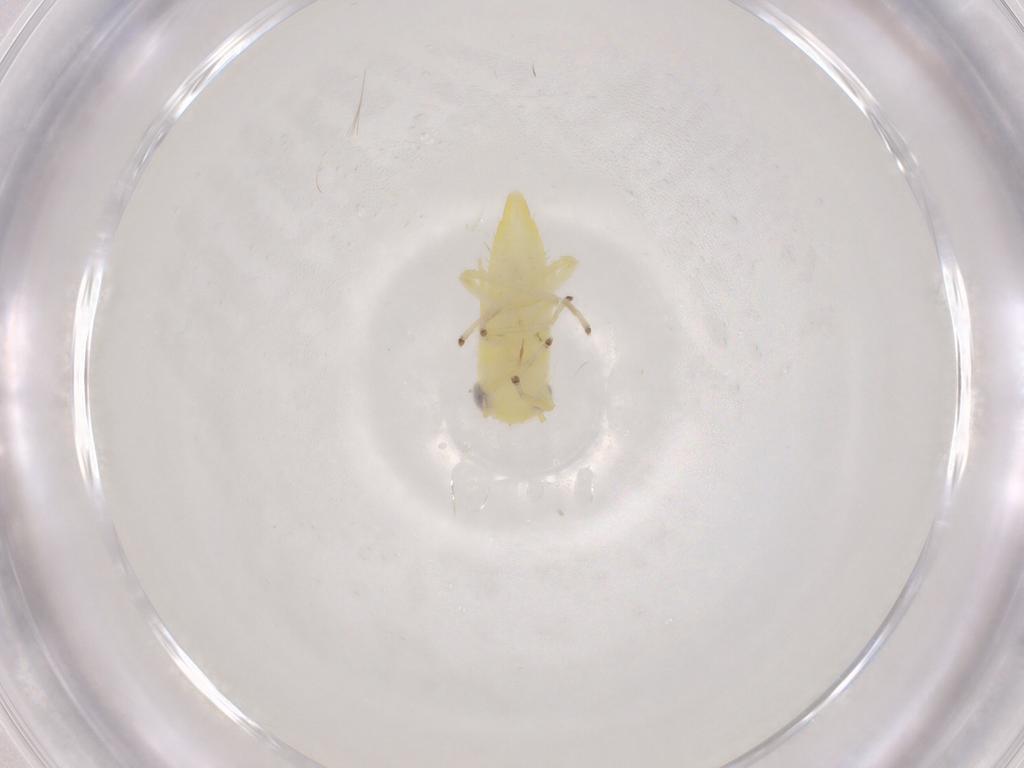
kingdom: Animalia
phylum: Arthropoda
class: Insecta
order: Hemiptera
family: Cicadellidae
